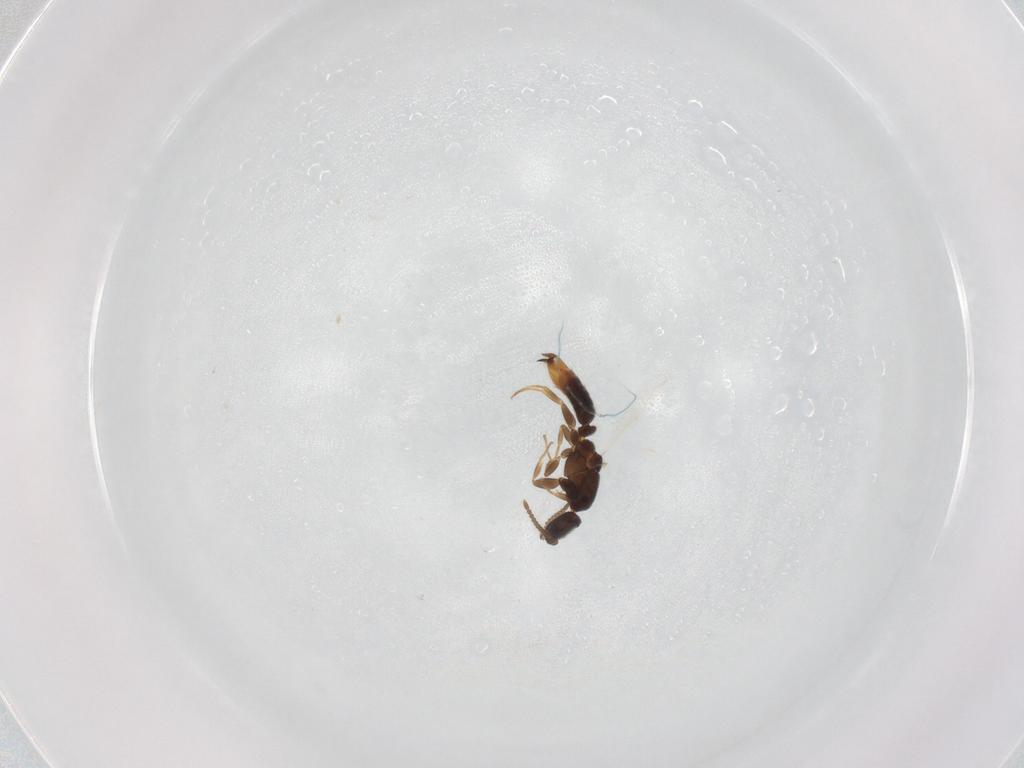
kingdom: Animalia
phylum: Arthropoda
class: Insecta
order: Hymenoptera
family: Formicidae
